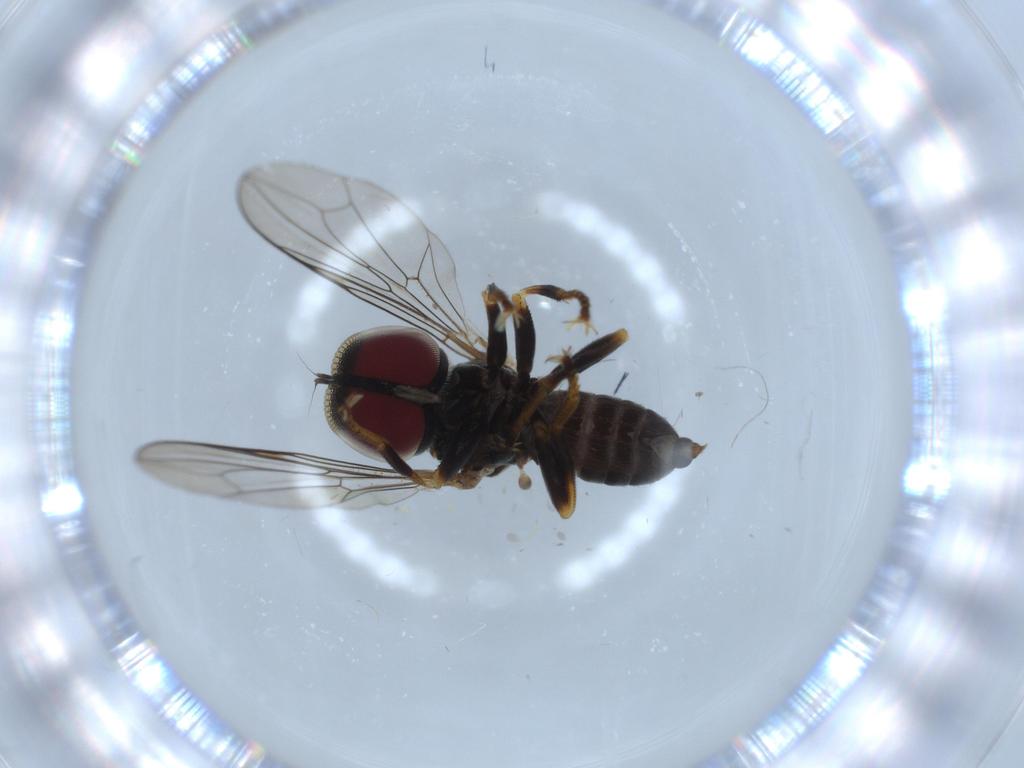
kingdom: Animalia
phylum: Arthropoda
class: Insecta
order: Diptera
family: Pipunculidae
